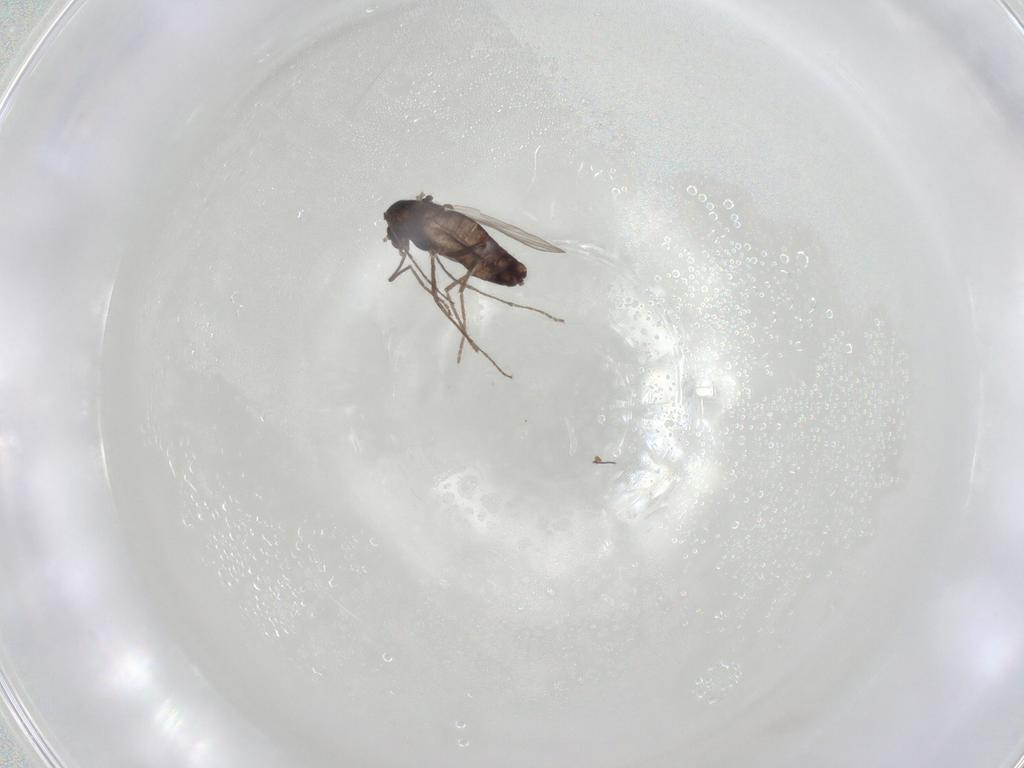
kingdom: Animalia
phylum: Arthropoda
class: Insecta
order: Diptera
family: Chironomidae
